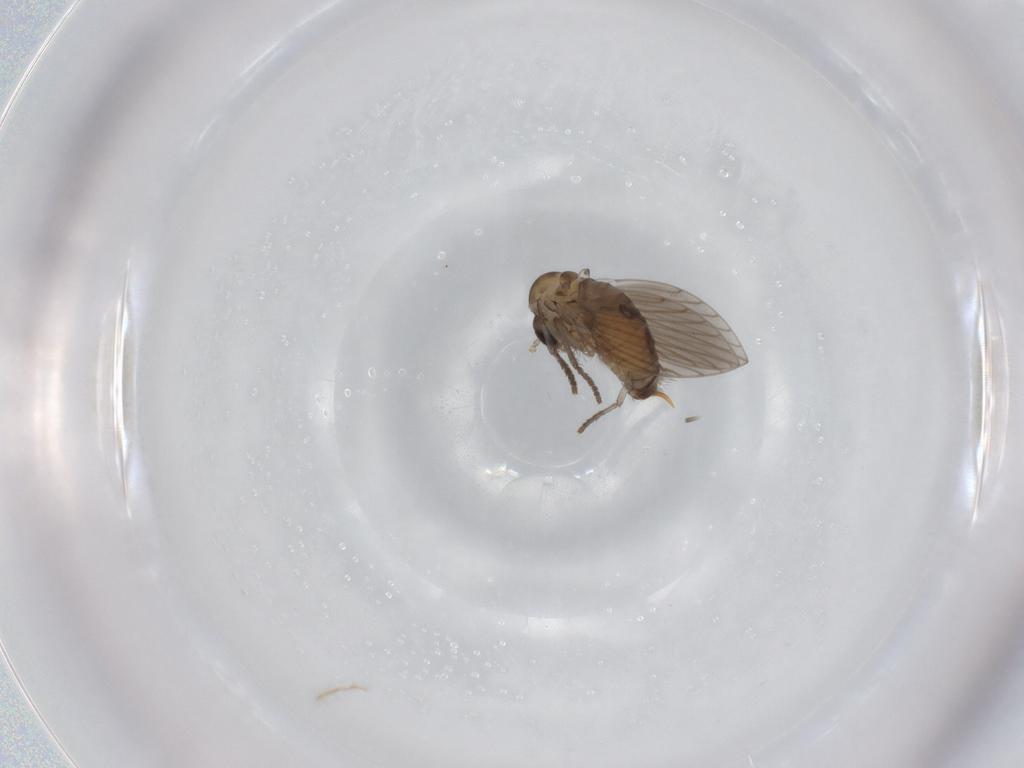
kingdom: Animalia
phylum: Arthropoda
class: Insecta
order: Diptera
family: Psychodidae
